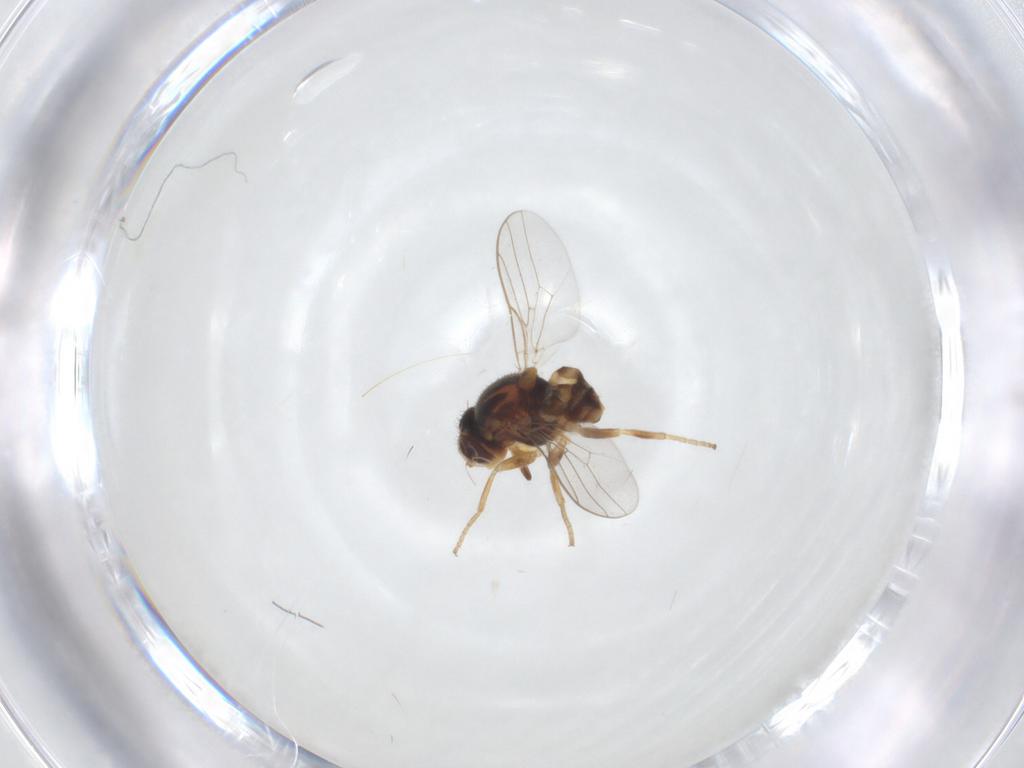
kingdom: Animalia
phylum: Arthropoda
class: Insecta
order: Diptera
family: Chloropidae
